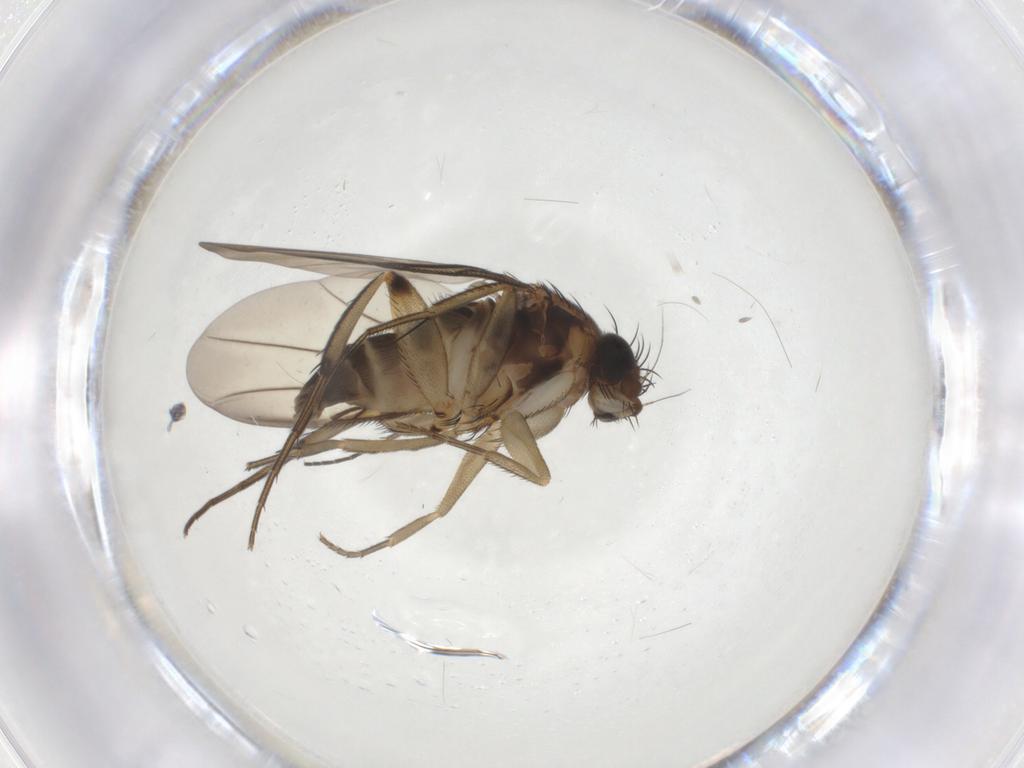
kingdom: Animalia
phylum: Arthropoda
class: Insecta
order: Diptera
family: Phoridae
